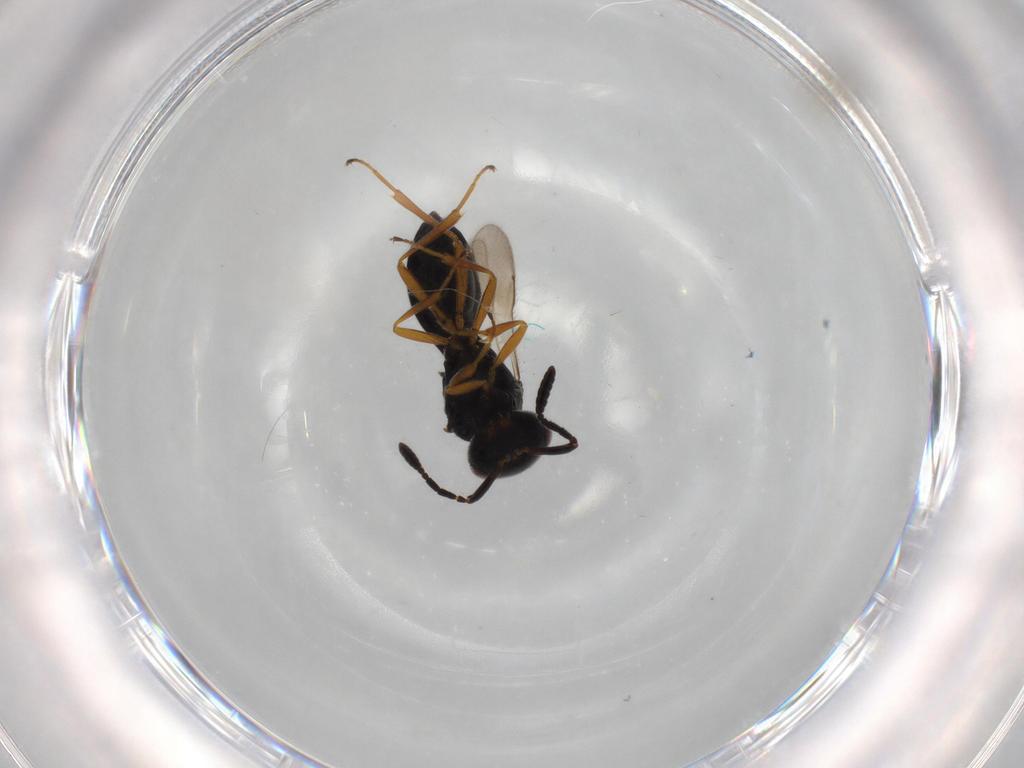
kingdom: Animalia
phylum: Arthropoda
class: Insecta
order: Hymenoptera
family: Scelionidae
